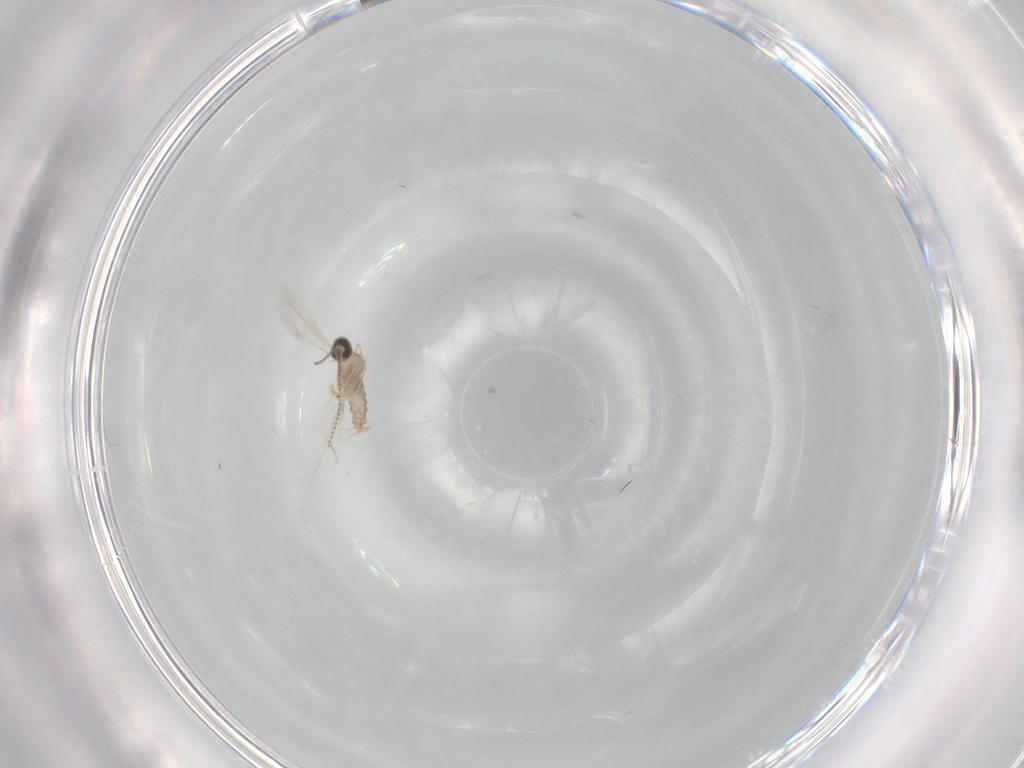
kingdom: Animalia
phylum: Arthropoda
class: Insecta
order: Diptera
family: Cecidomyiidae
